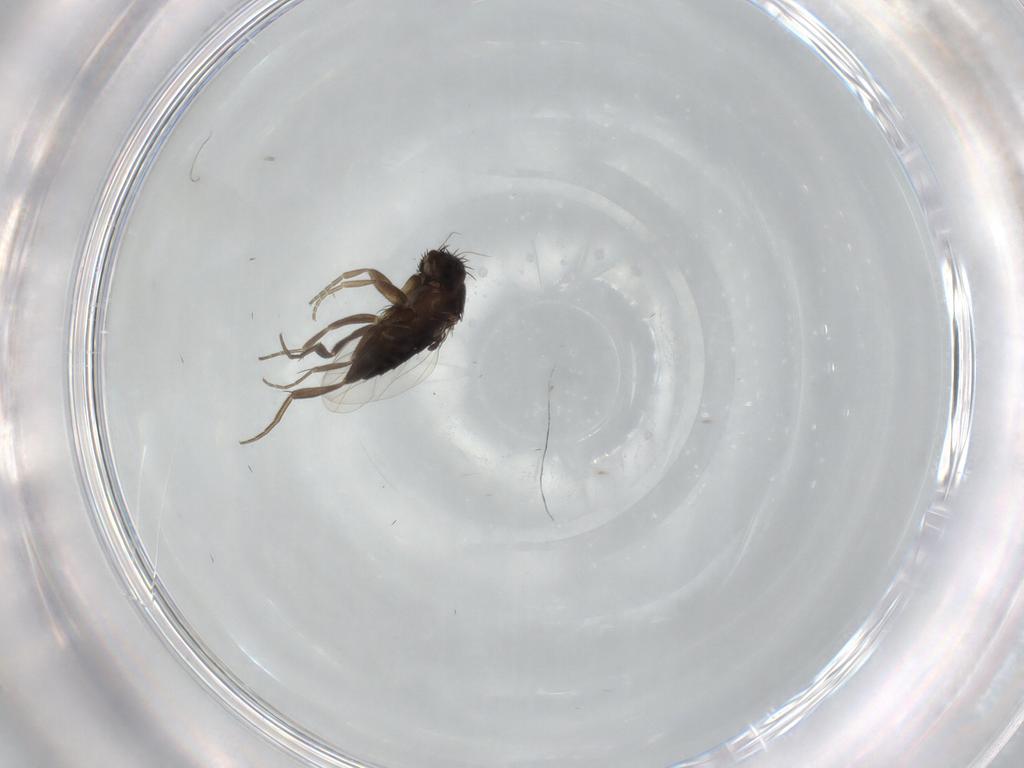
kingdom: Animalia
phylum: Arthropoda
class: Insecta
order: Diptera
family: Phoridae
